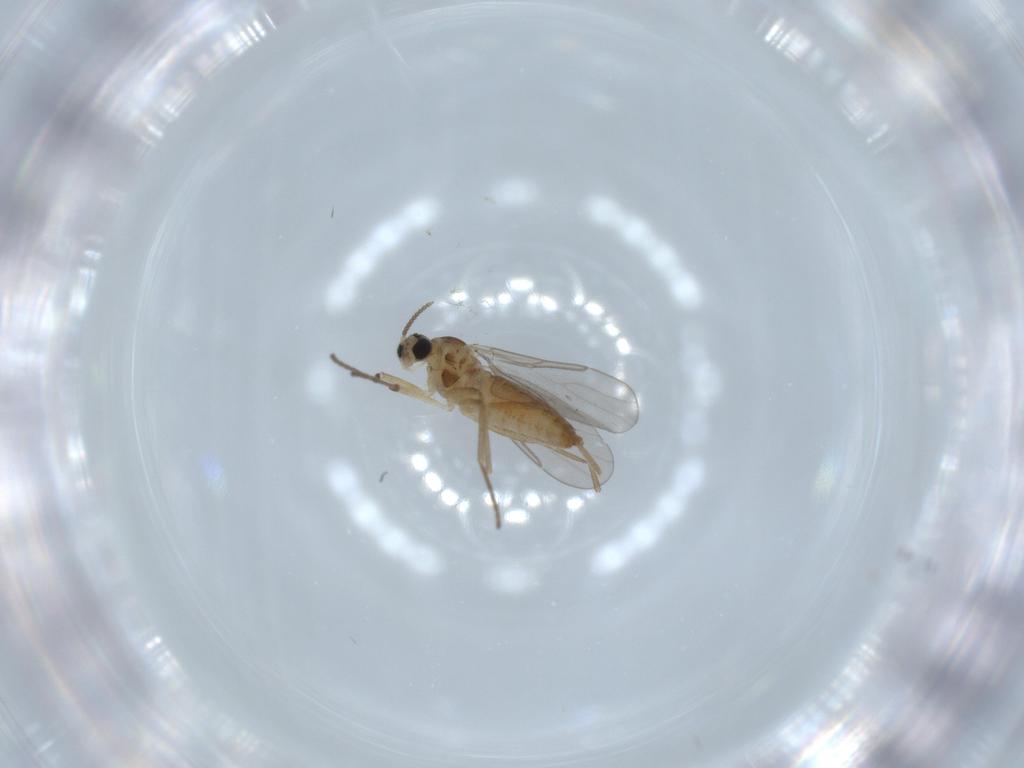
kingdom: Animalia
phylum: Arthropoda
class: Insecta
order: Diptera
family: Cecidomyiidae
